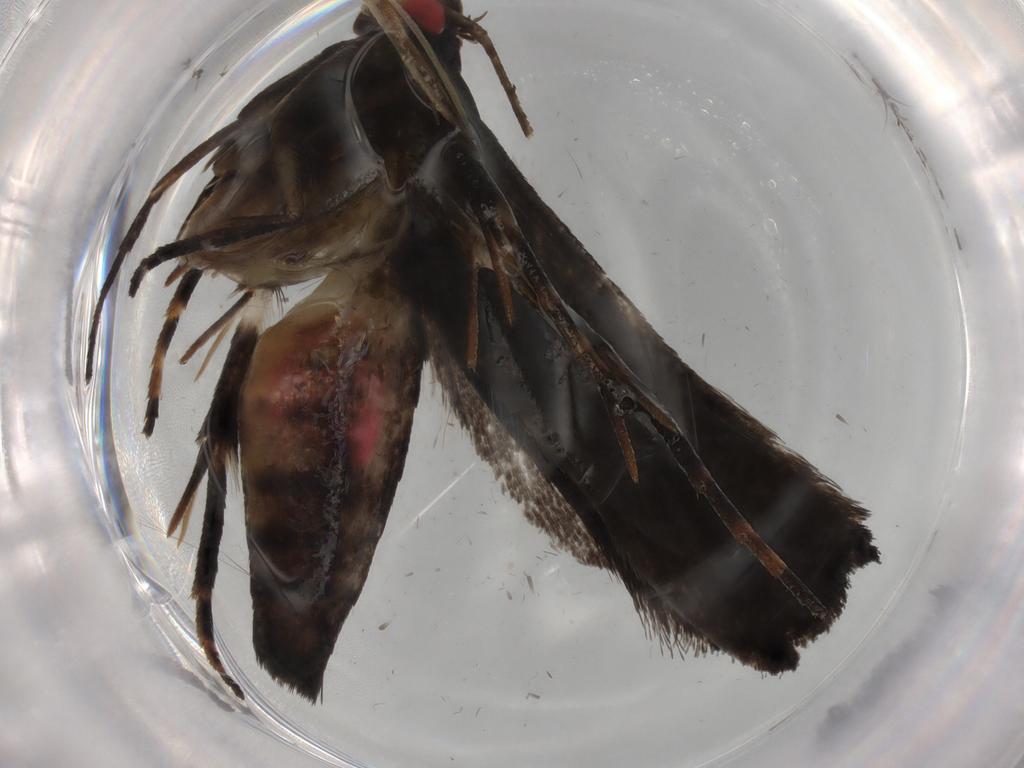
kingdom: Animalia
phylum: Arthropoda
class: Insecta
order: Lepidoptera
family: Gelechiidae
